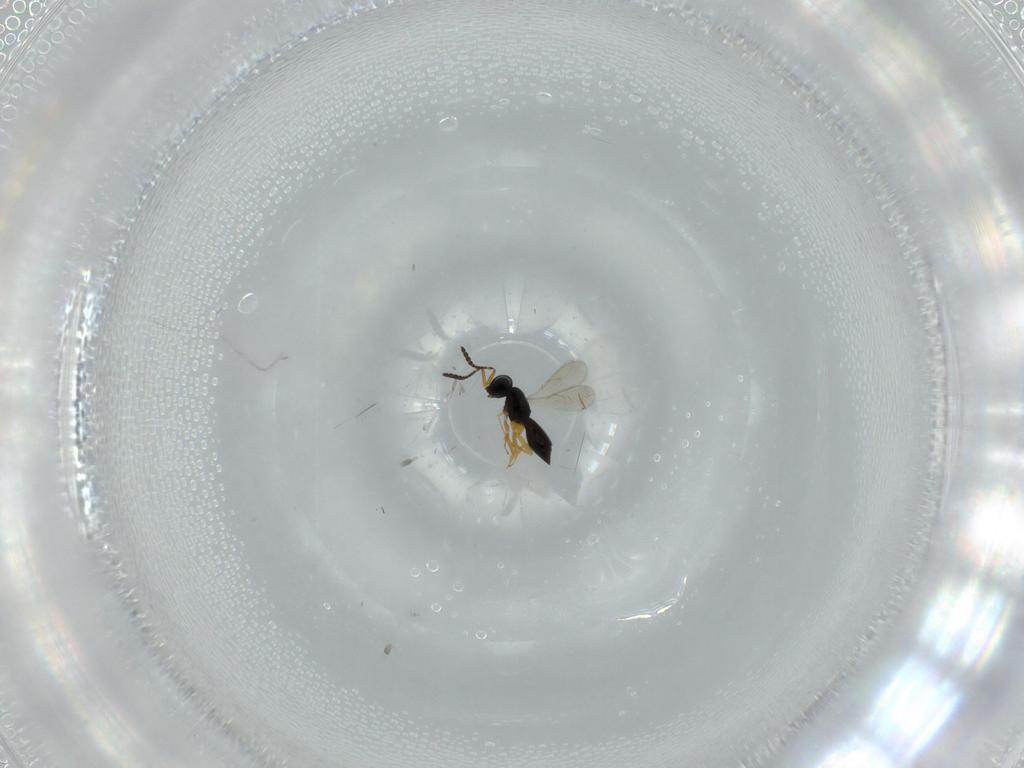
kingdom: Animalia
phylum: Arthropoda
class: Insecta
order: Hymenoptera
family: Scelionidae
